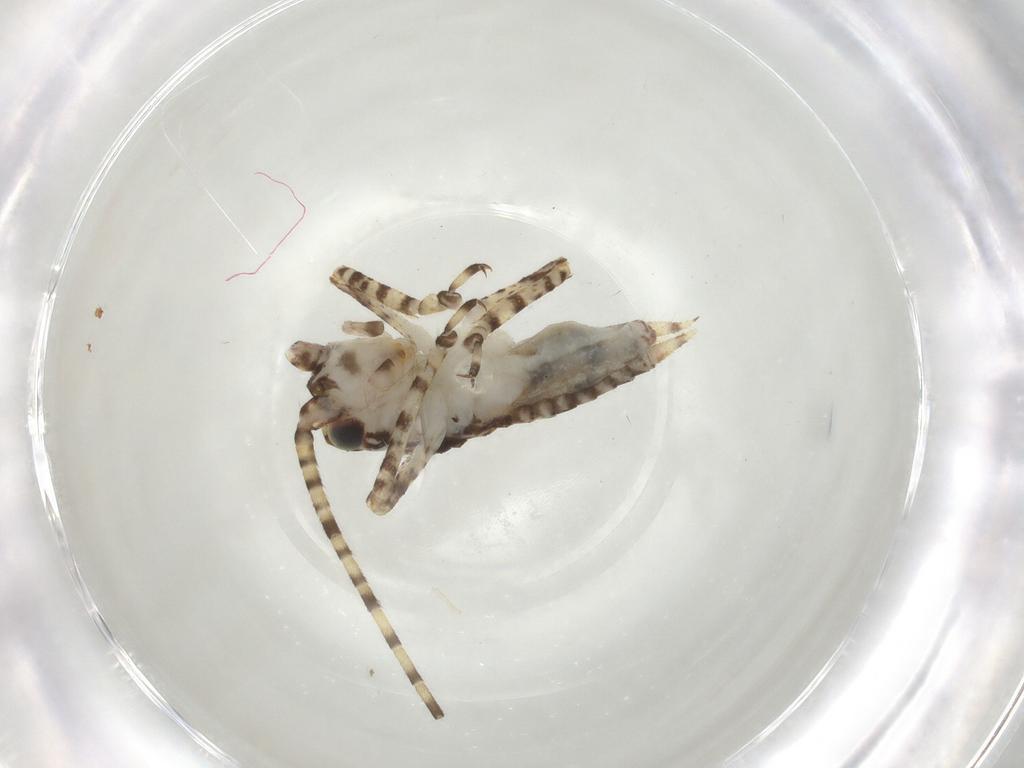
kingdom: Animalia
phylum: Arthropoda
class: Insecta
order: Orthoptera
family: Gryllidae
